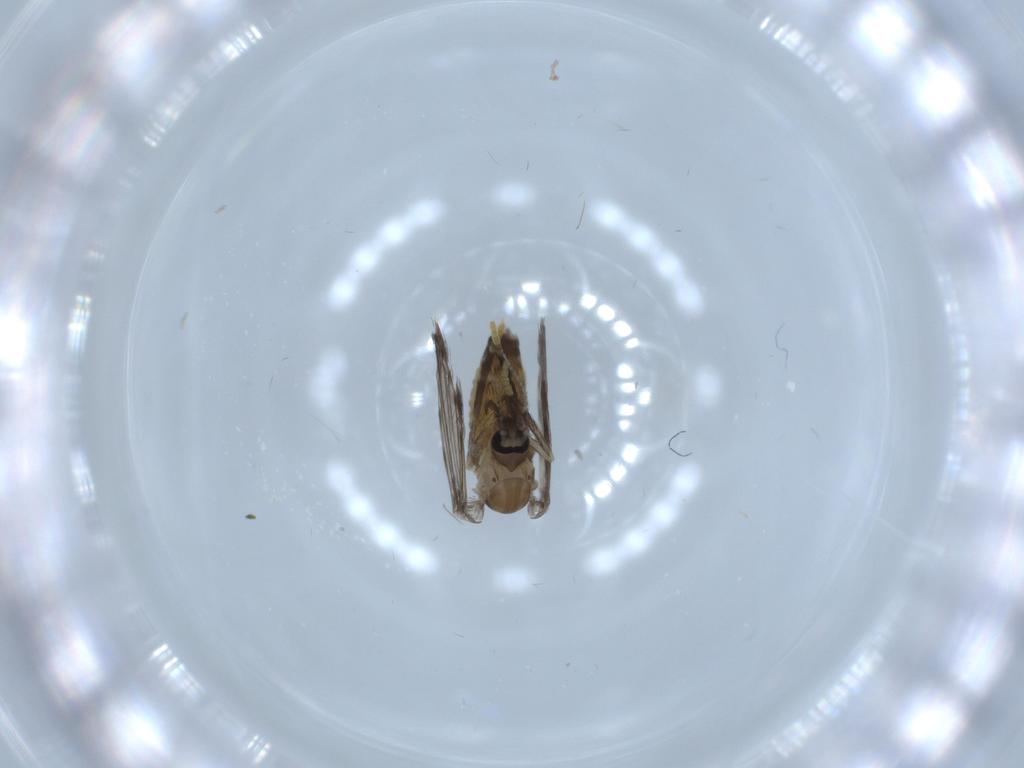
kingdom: Animalia
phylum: Arthropoda
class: Insecta
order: Diptera
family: Psychodidae
